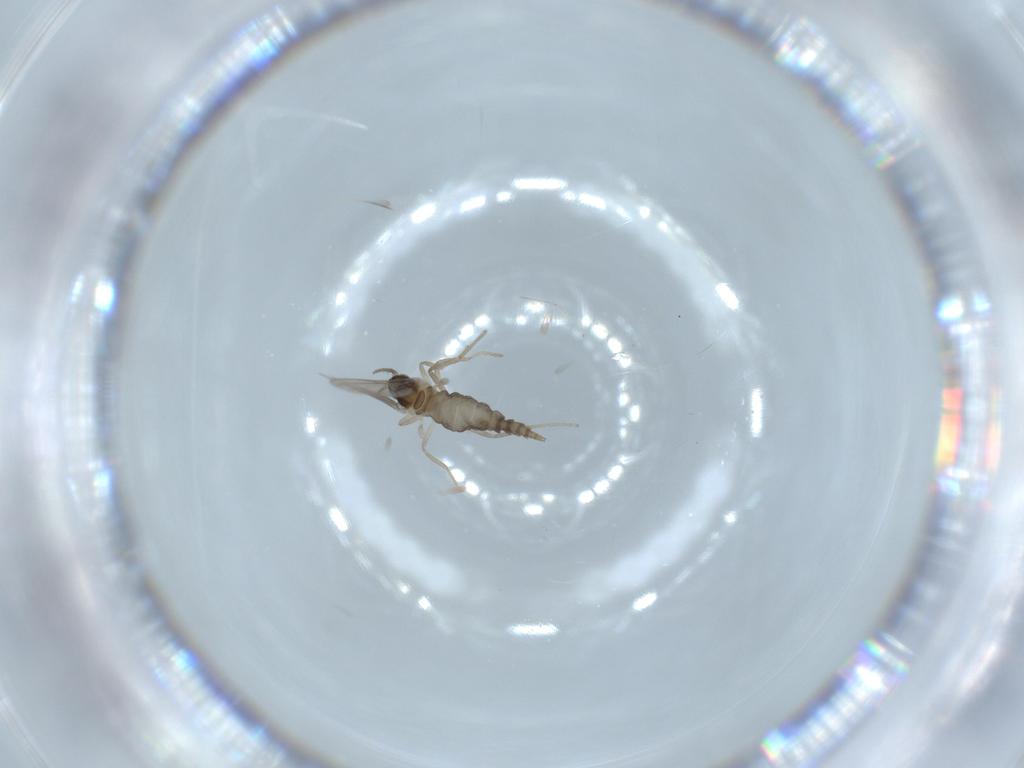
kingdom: Animalia
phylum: Arthropoda
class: Insecta
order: Diptera
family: Cecidomyiidae
